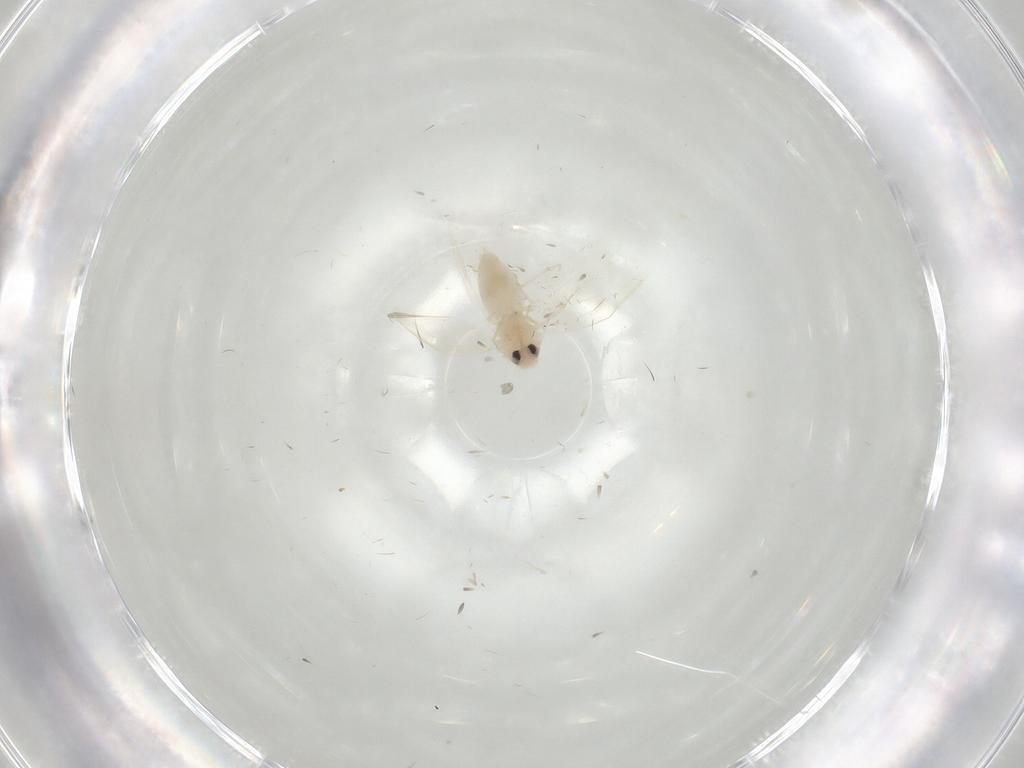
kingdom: Animalia
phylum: Arthropoda
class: Insecta
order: Hemiptera
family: Aleyrodidae
